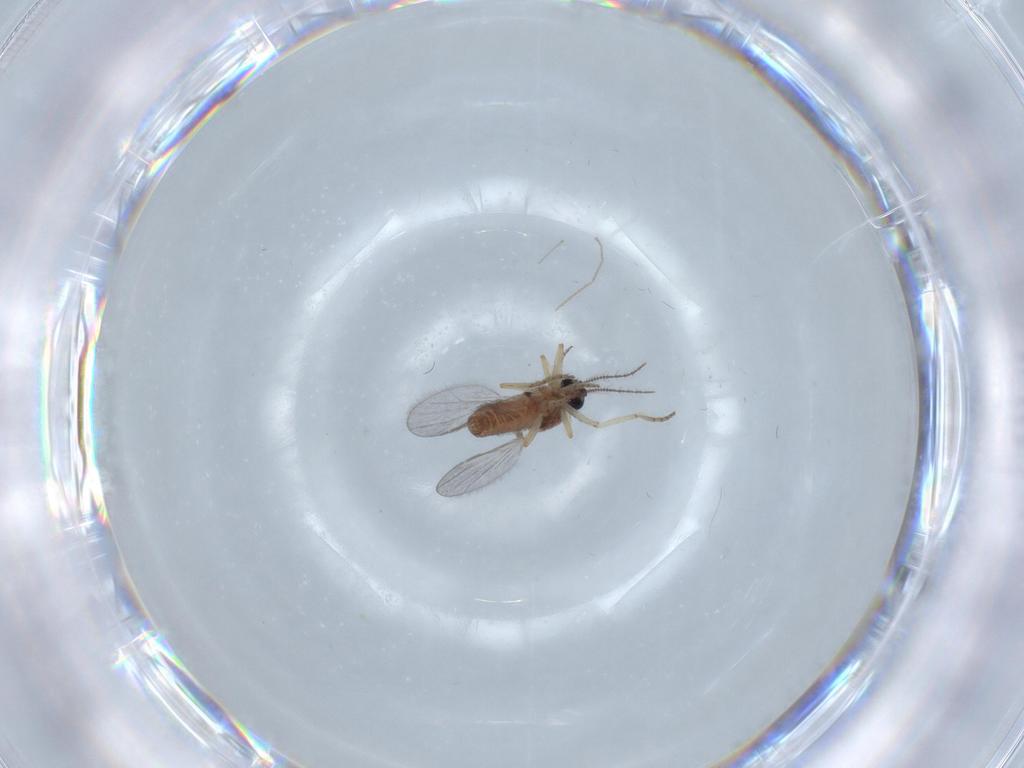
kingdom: Animalia
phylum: Arthropoda
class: Insecta
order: Diptera
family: Ceratopogonidae
